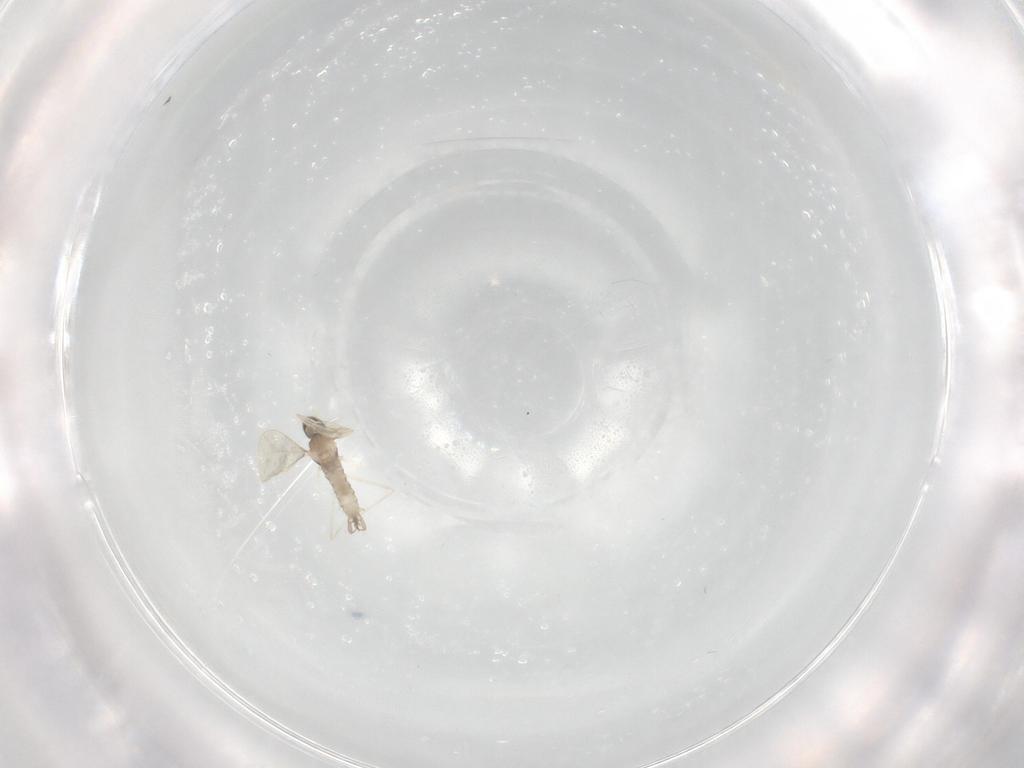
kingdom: Animalia
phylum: Arthropoda
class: Insecta
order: Diptera
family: Cecidomyiidae
